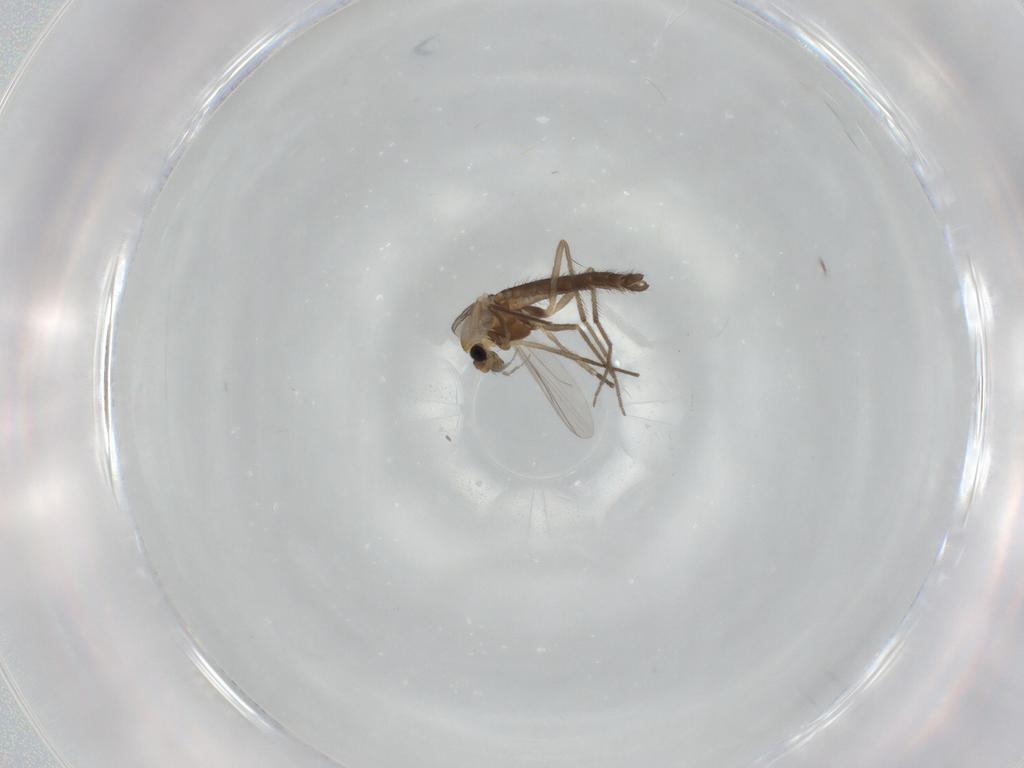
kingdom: Animalia
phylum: Arthropoda
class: Insecta
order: Diptera
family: Chironomidae
